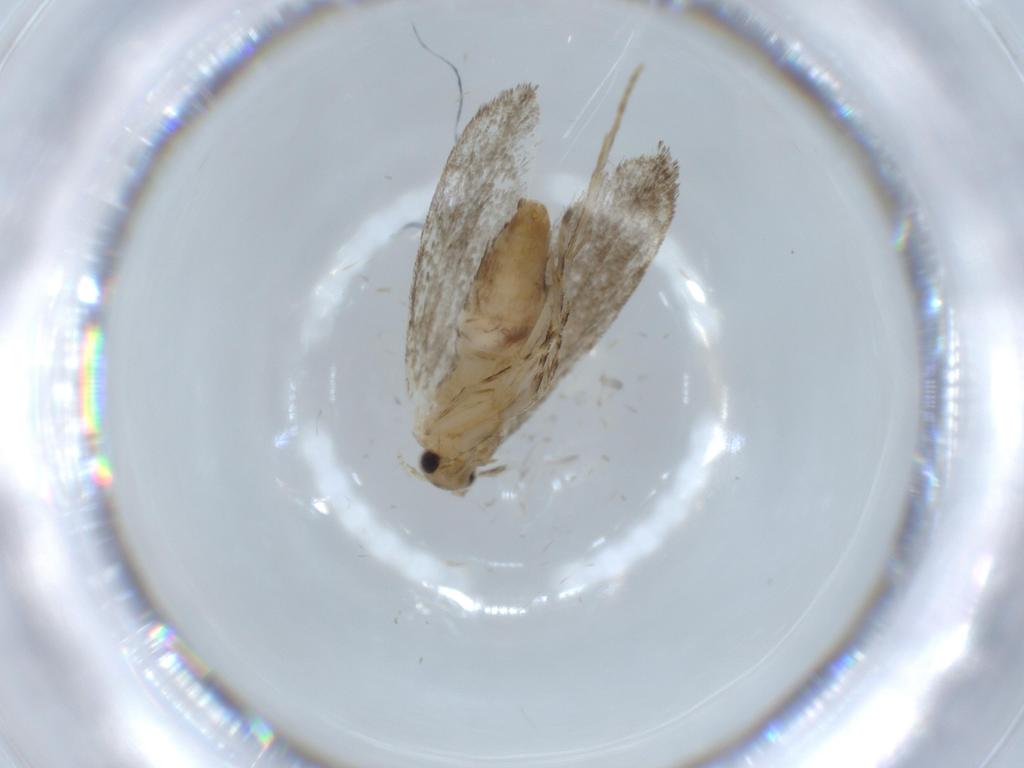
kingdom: Animalia
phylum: Arthropoda
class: Insecta
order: Lepidoptera
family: Tineidae
